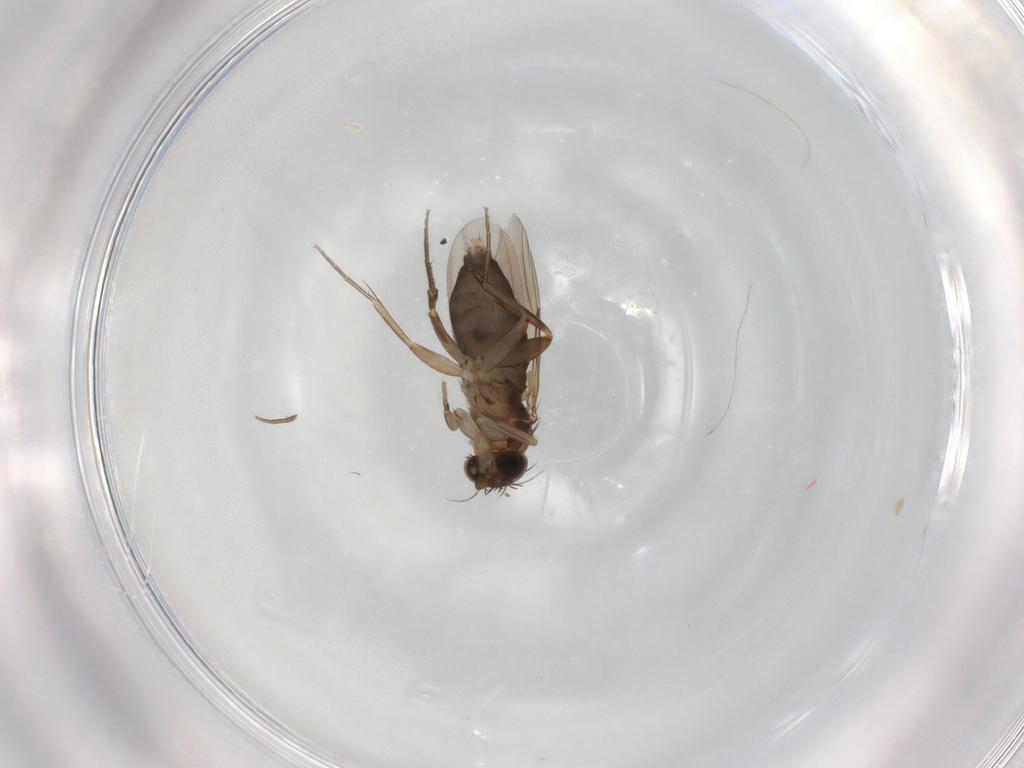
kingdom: Animalia
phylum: Arthropoda
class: Insecta
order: Diptera
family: Phoridae
